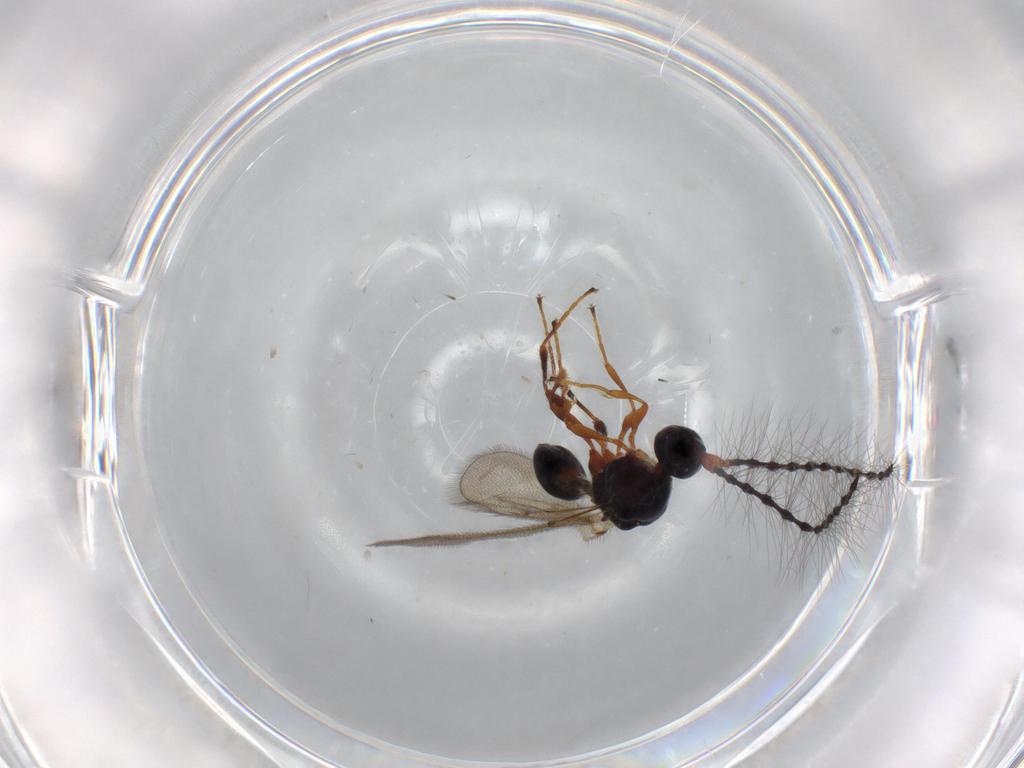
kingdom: Animalia
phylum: Arthropoda
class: Insecta
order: Hymenoptera
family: Diapriidae
